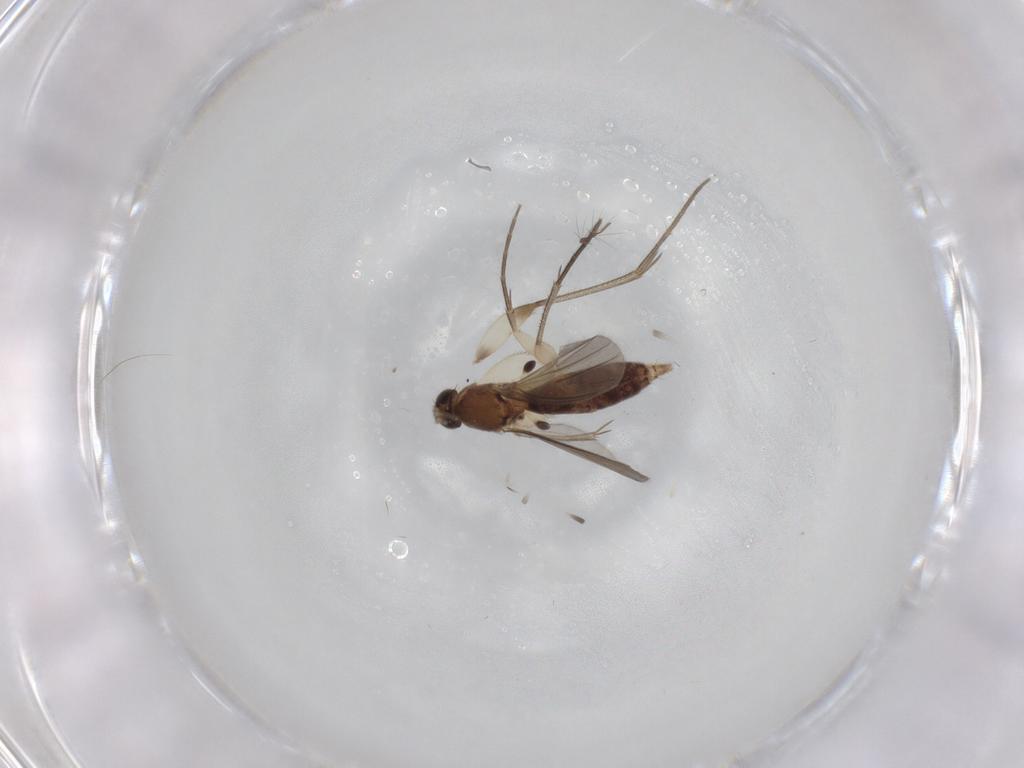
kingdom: Animalia
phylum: Arthropoda
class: Insecta
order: Diptera
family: Mycetophilidae
